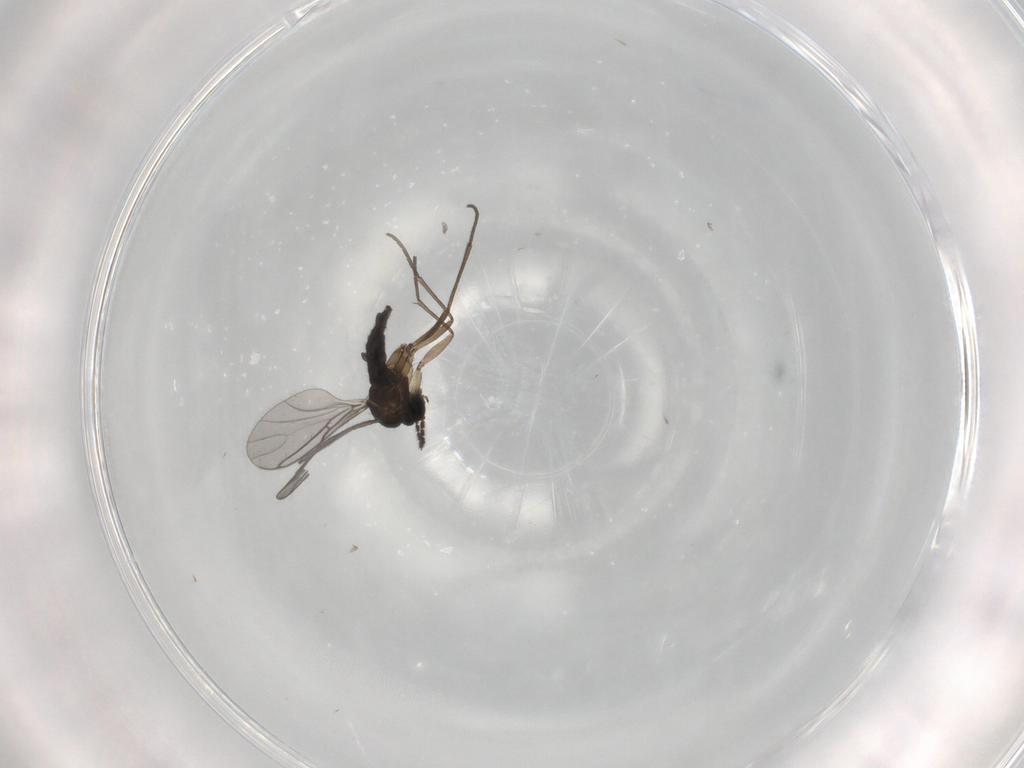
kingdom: Animalia
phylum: Arthropoda
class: Insecta
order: Diptera
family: Sciaridae
